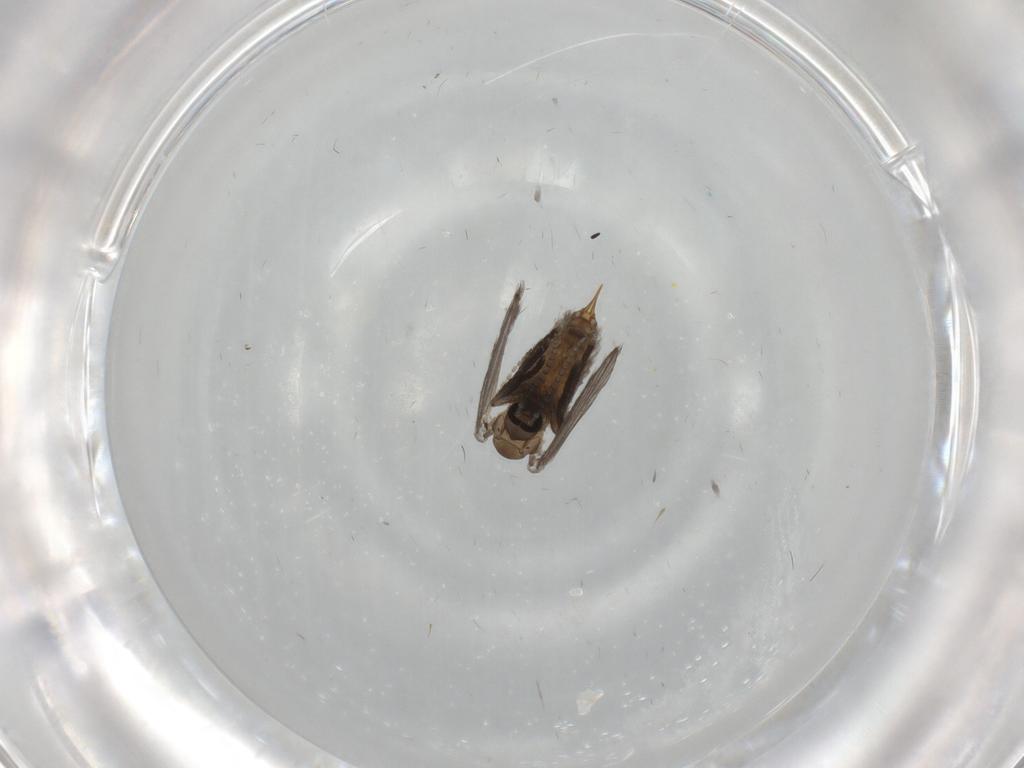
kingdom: Animalia
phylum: Arthropoda
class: Insecta
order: Diptera
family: Psychodidae
